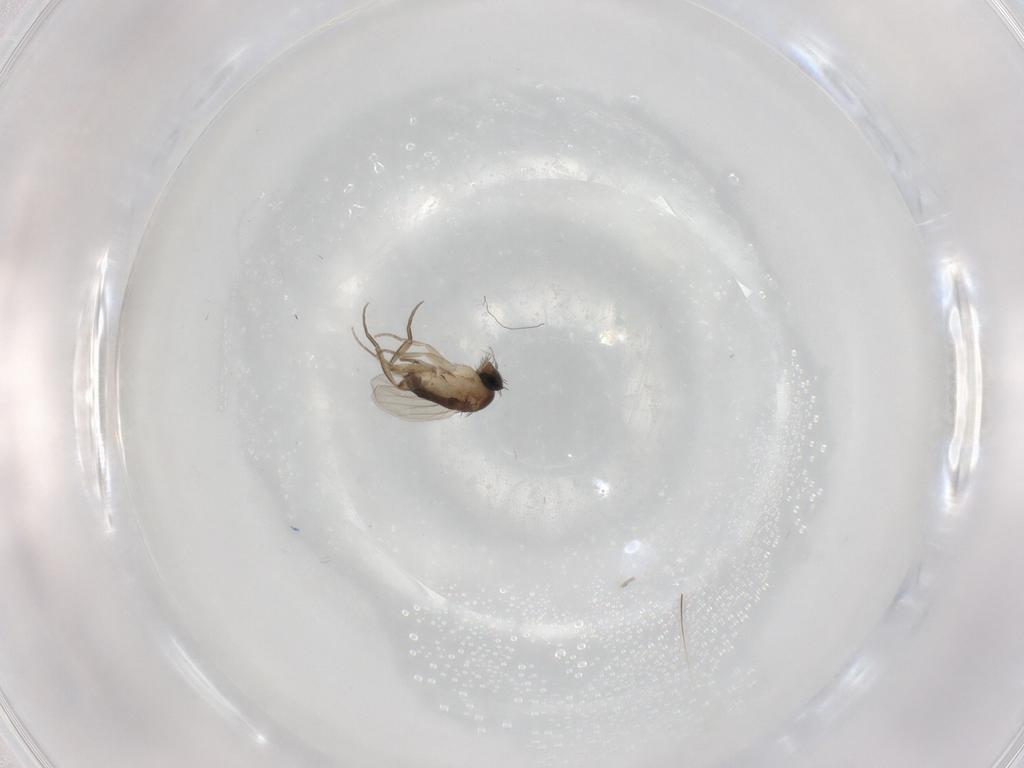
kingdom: Animalia
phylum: Arthropoda
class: Insecta
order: Diptera
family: Phoridae
